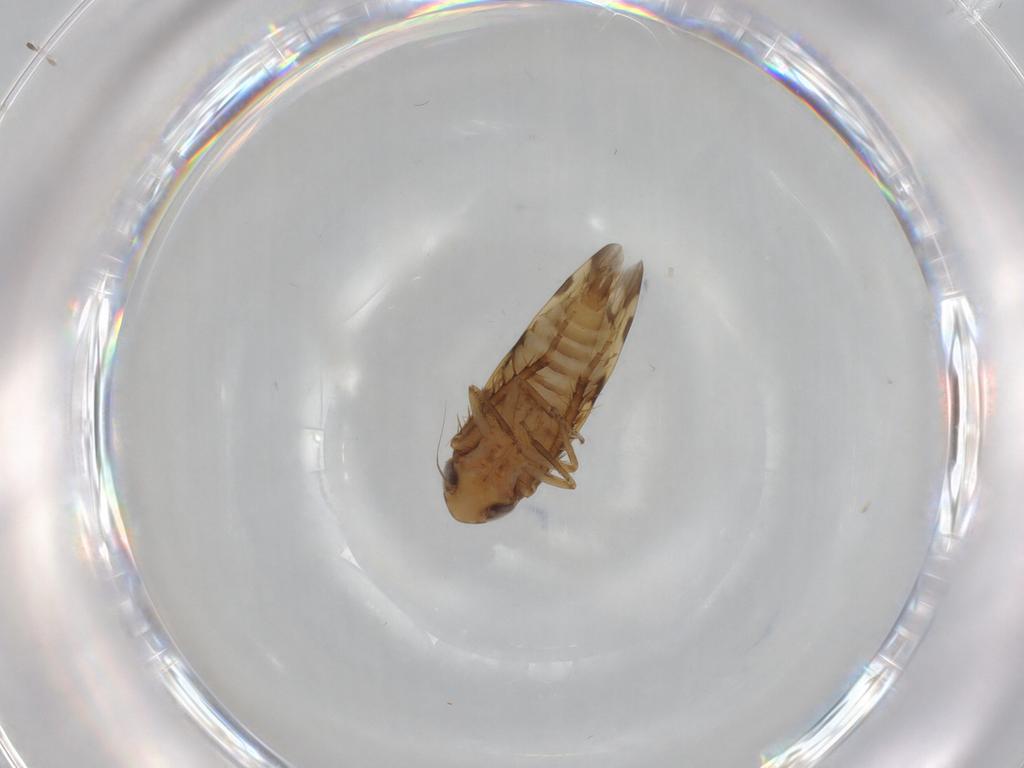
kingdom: Animalia
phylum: Arthropoda
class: Insecta
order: Hemiptera
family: Cicadellidae
